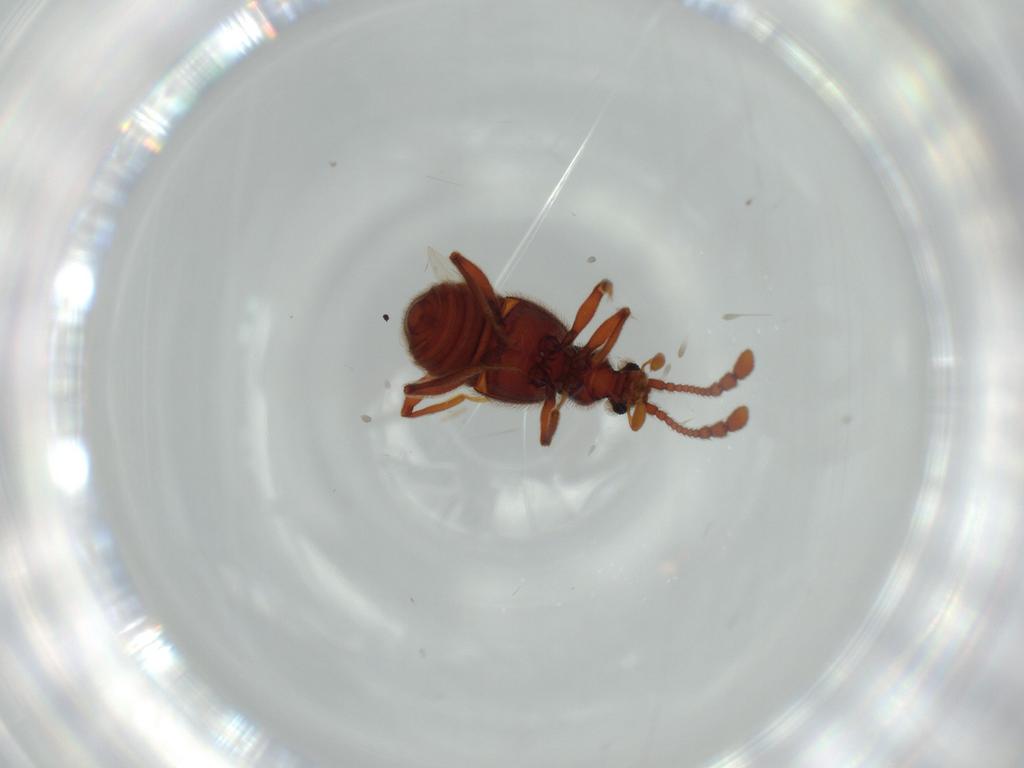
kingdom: Animalia
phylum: Arthropoda
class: Insecta
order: Coleoptera
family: Staphylinidae
